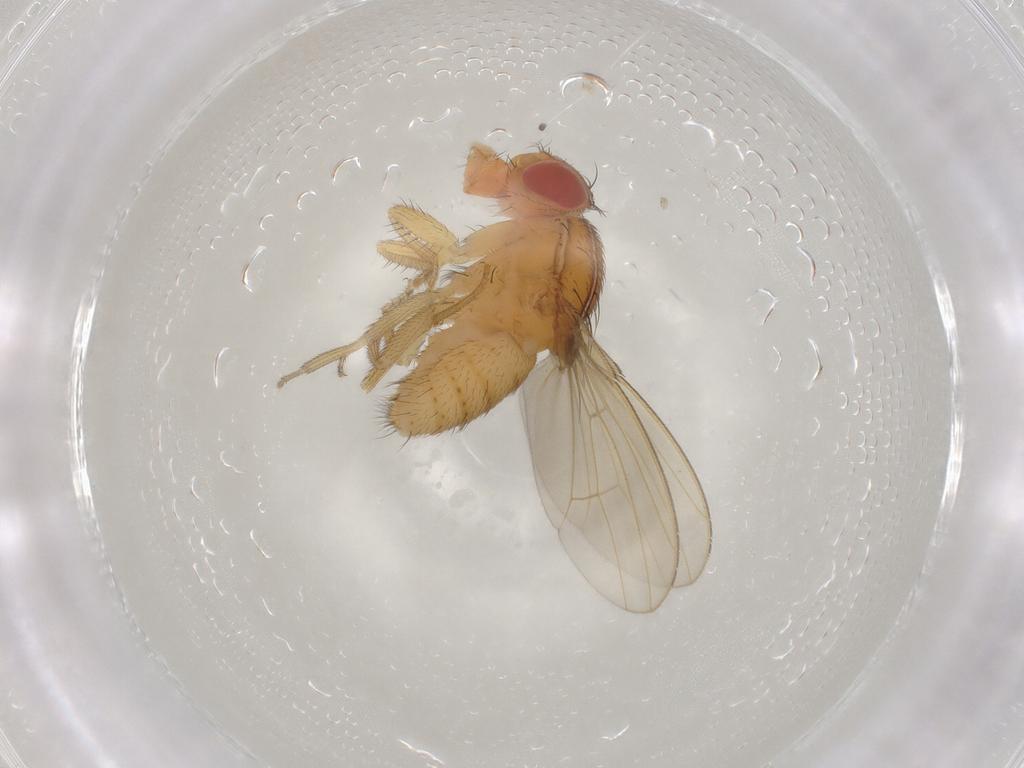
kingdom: Animalia
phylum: Arthropoda
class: Insecta
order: Diptera
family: Drosophilidae
